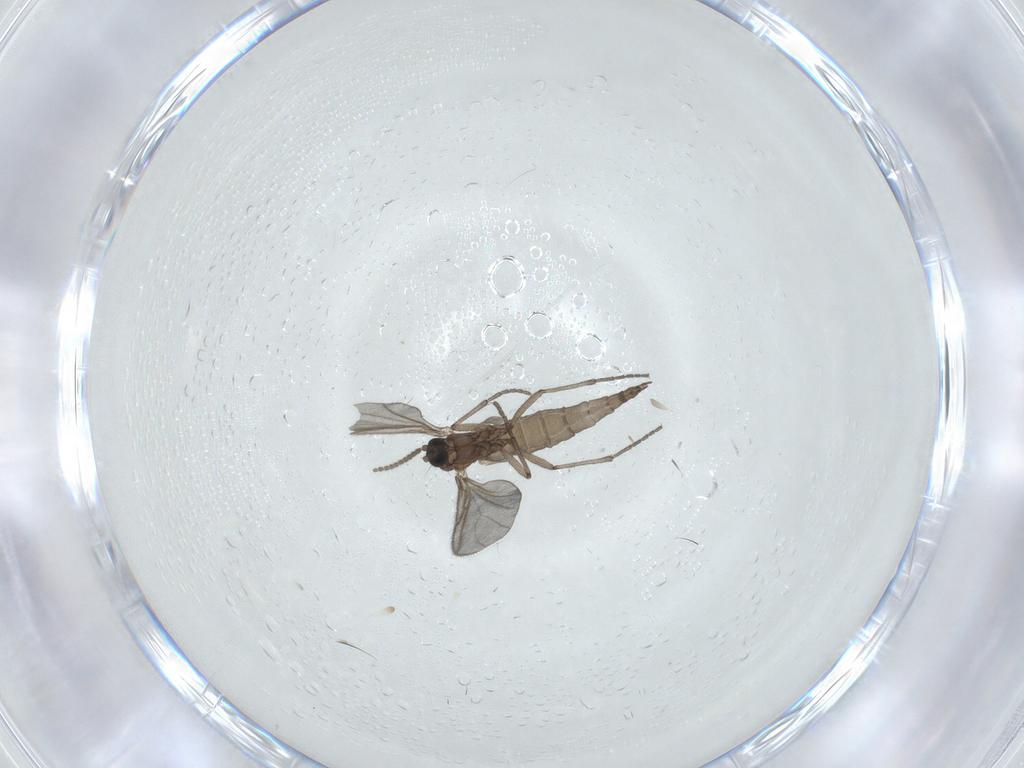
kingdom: Animalia
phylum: Arthropoda
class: Insecta
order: Diptera
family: Sciaridae
